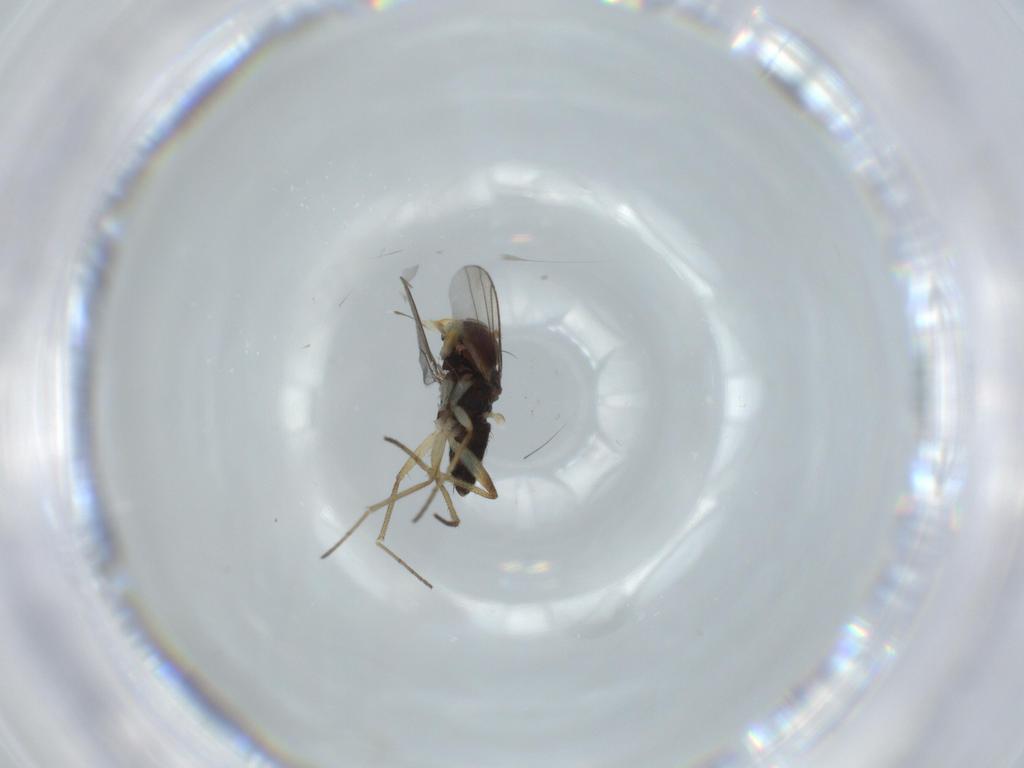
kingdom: Animalia
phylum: Arthropoda
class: Insecta
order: Diptera
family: Dolichopodidae
